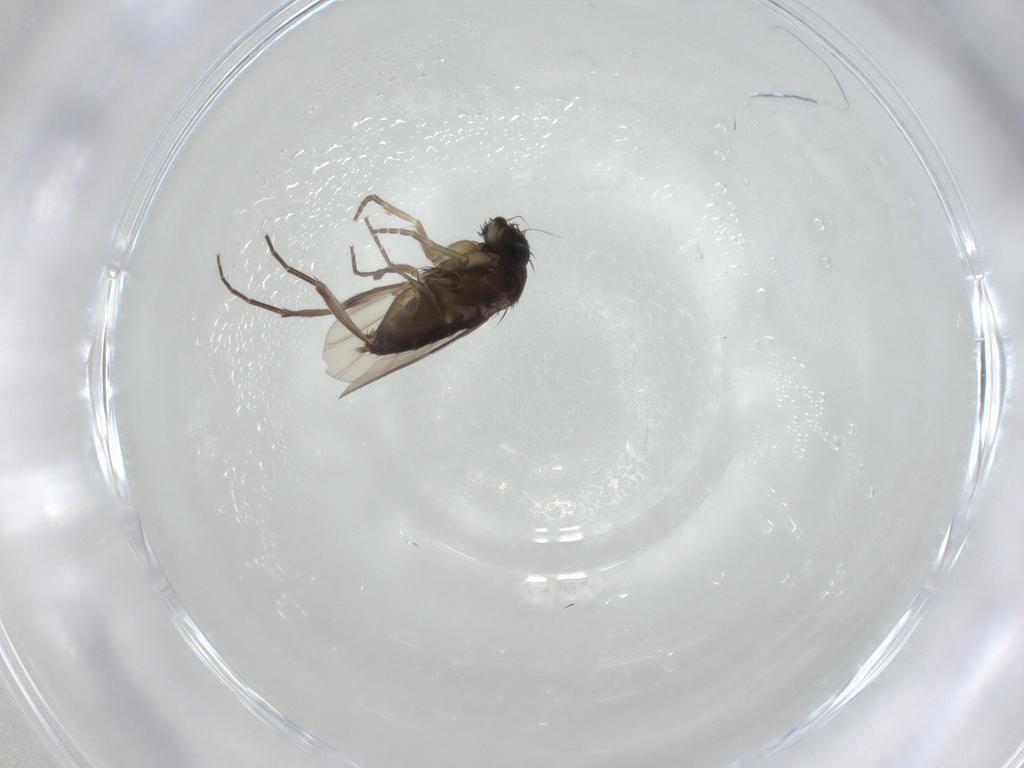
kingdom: Animalia
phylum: Arthropoda
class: Insecta
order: Diptera
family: Phoridae
